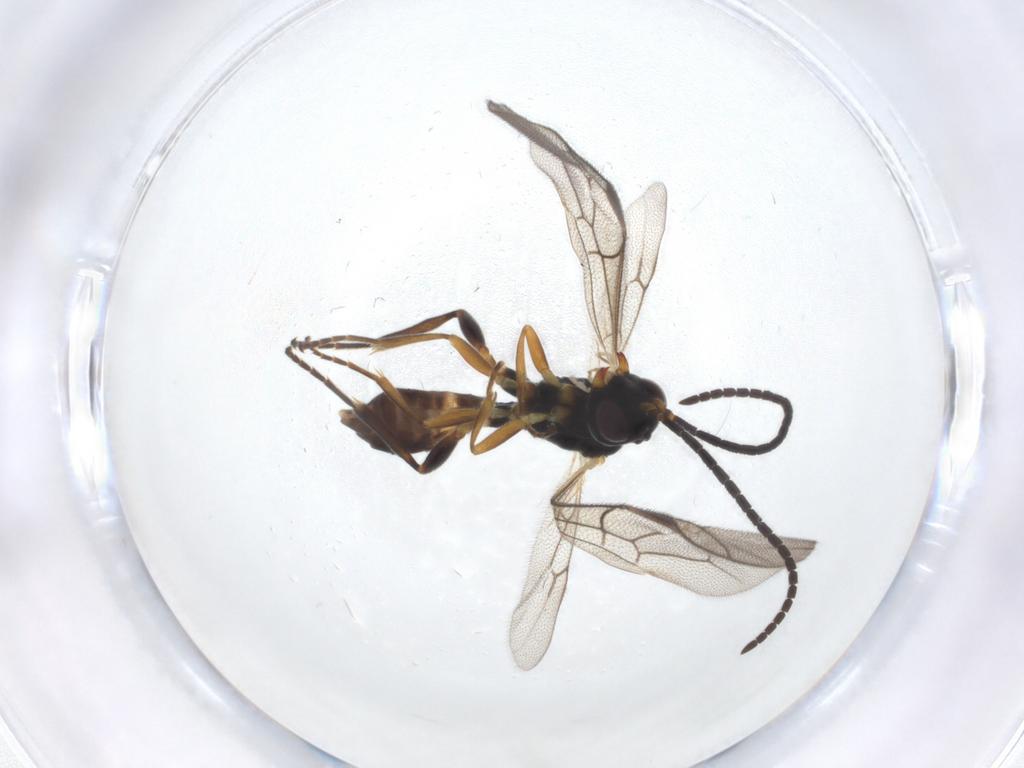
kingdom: Animalia
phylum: Arthropoda
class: Insecta
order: Hymenoptera
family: Ichneumonidae
